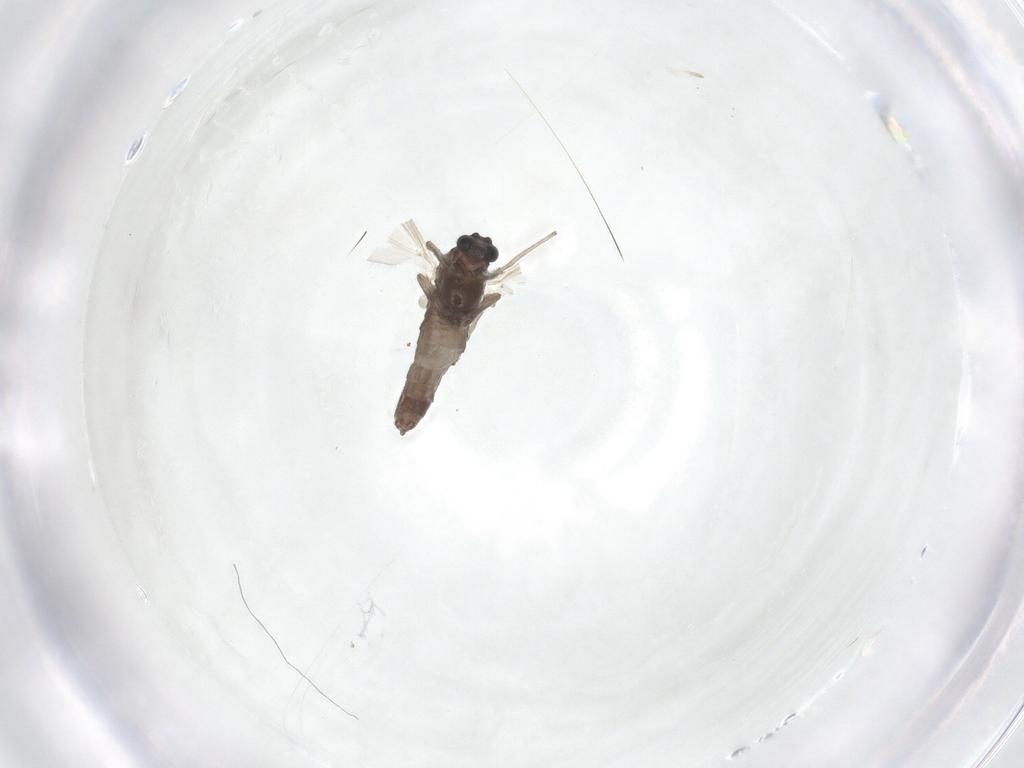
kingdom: Animalia
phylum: Arthropoda
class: Insecta
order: Diptera
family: Chironomidae
